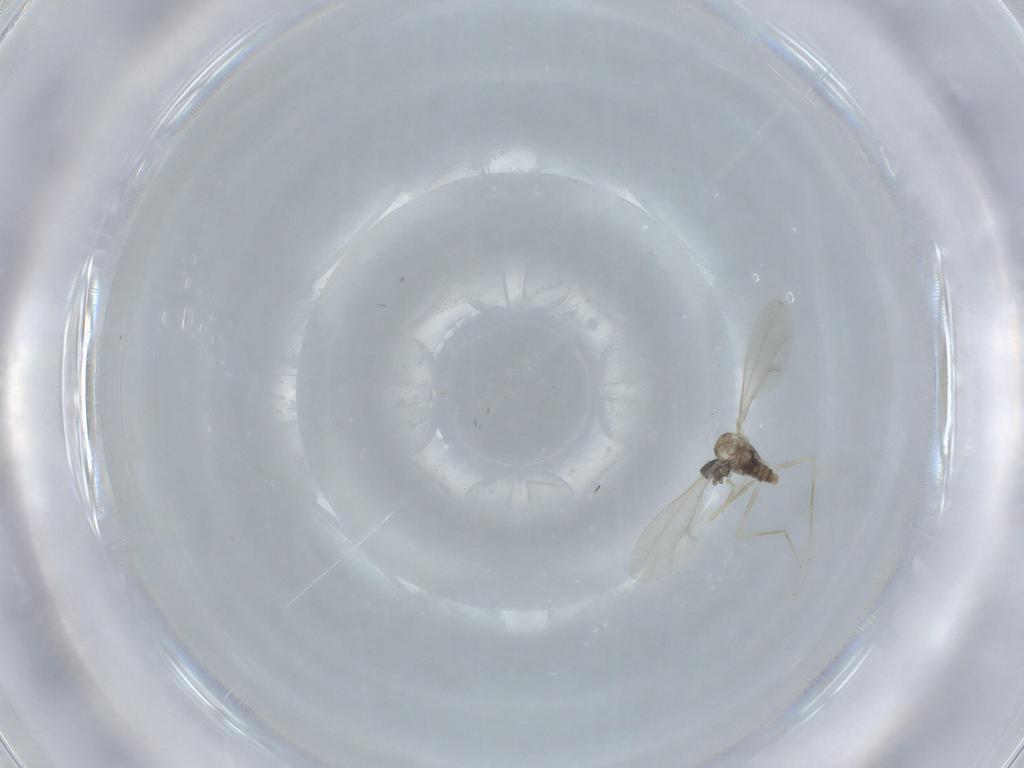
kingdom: Animalia
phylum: Arthropoda
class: Insecta
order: Diptera
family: Cecidomyiidae
